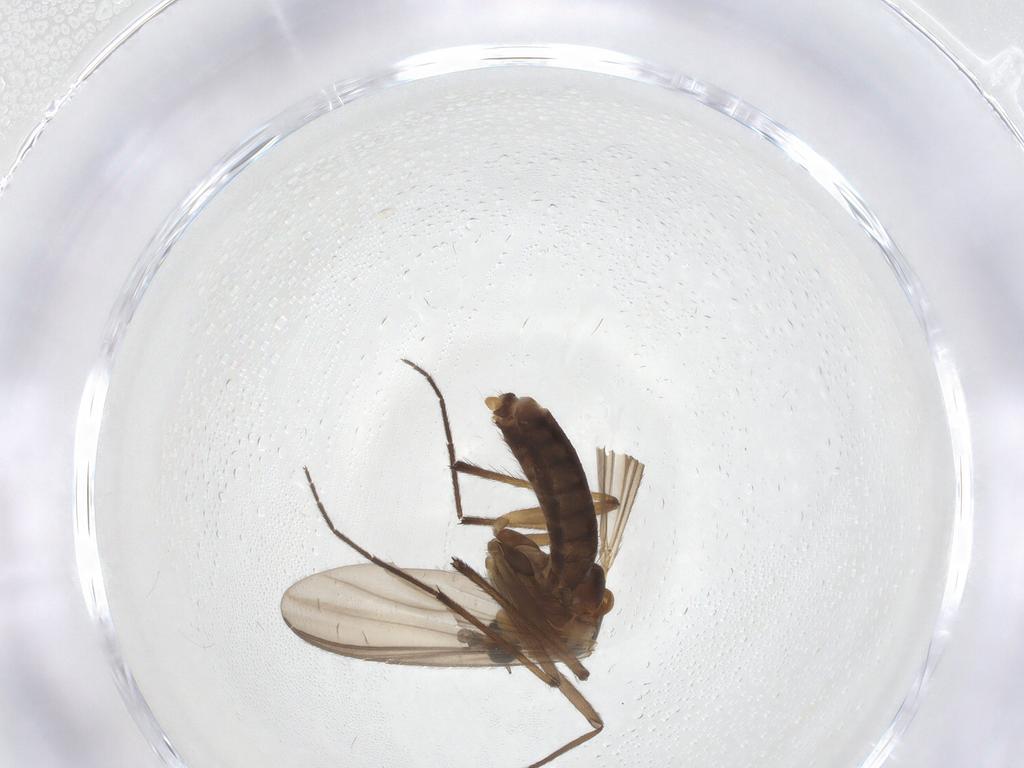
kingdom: Animalia
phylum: Arthropoda
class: Insecta
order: Diptera
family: Chironomidae
